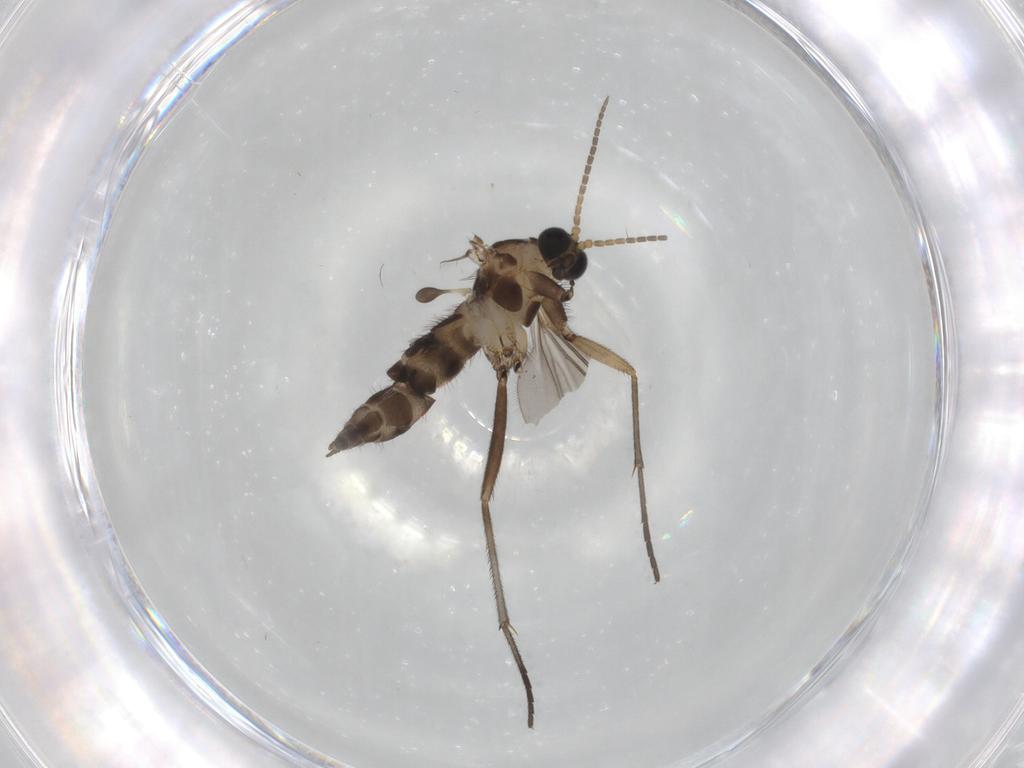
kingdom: Animalia
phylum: Arthropoda
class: Insecta
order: Diptera
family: Sciaridae
